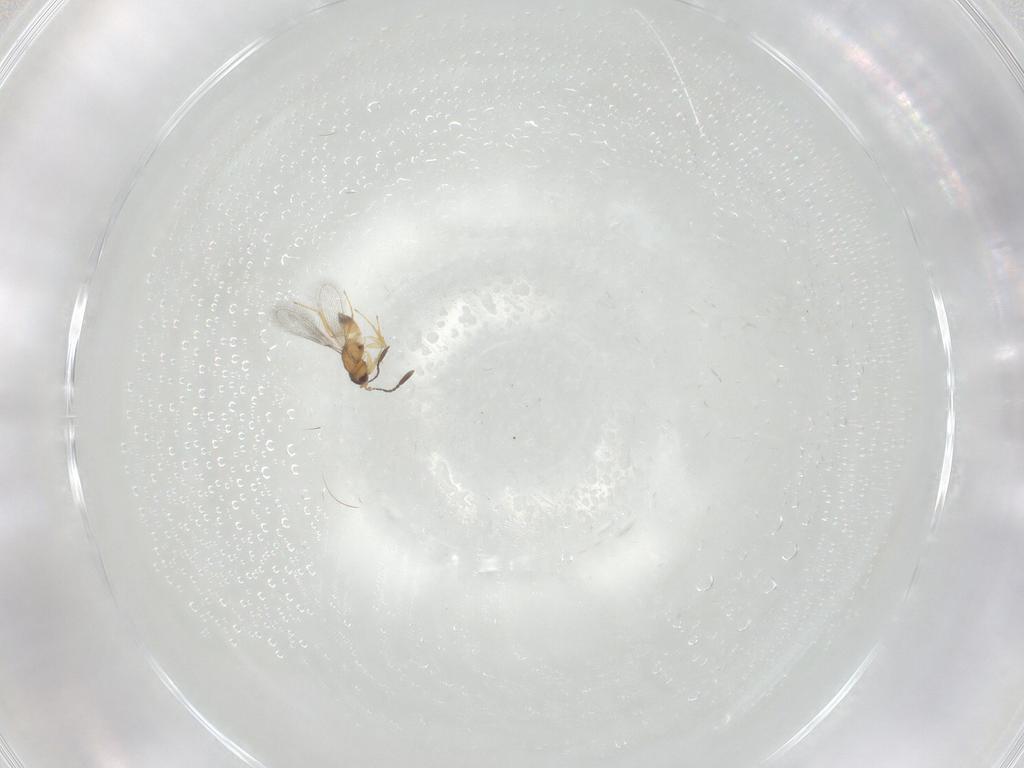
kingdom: Animalia
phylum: Arthropoda
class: Insecta
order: Hymenoptera
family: Mymaridae
